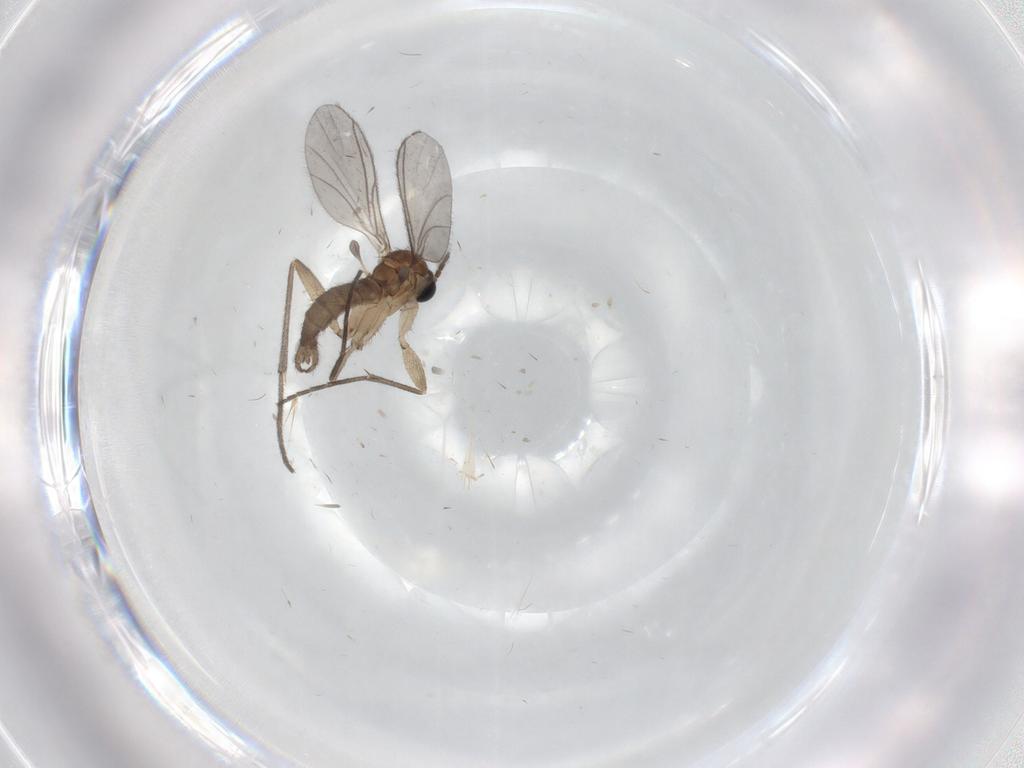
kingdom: Animalia
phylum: Arthropoda
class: Insecta
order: Diptera
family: Sciaridae
